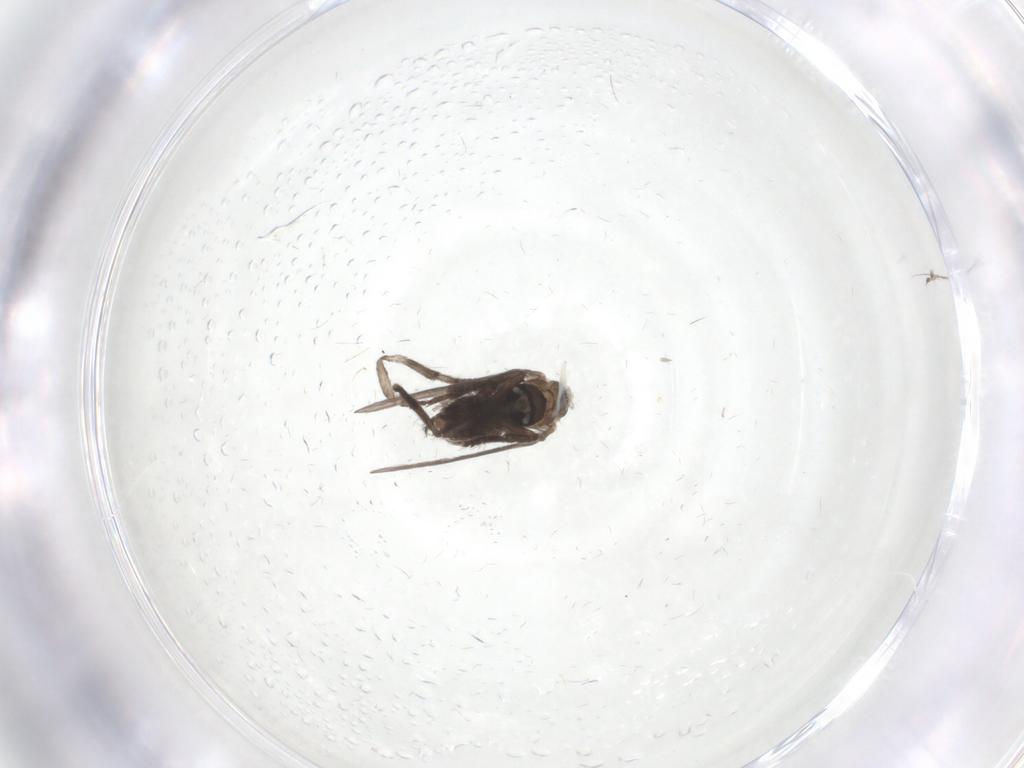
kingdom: Animalia
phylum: Arthropoda
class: Insecta
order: Diptera
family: Psychodidae
